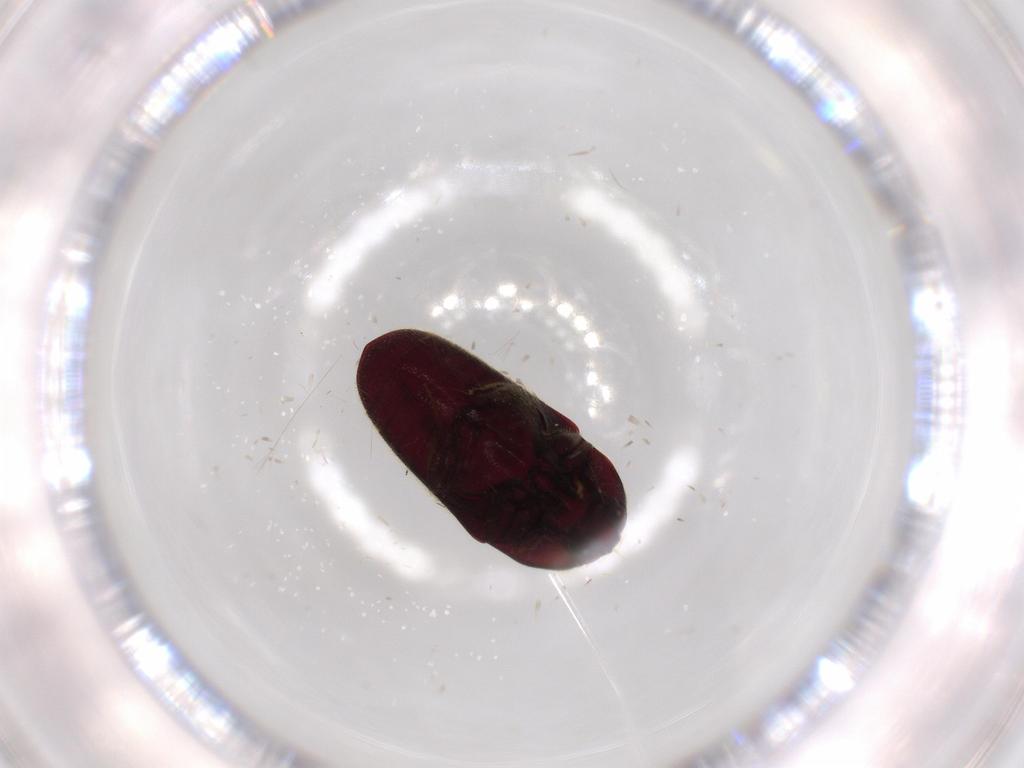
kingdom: Animalia
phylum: Arthropoda
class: Insecta
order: Coleoptera
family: Throscidae
